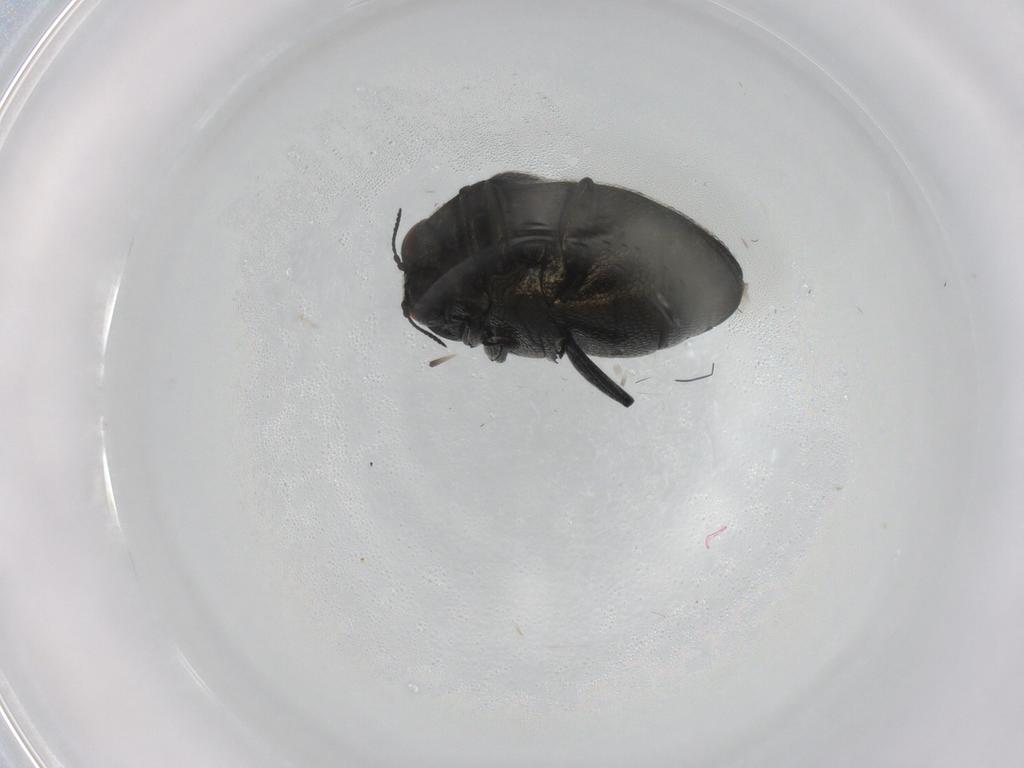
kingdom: Animalia
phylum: Arthropoda
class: Insecta
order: Coleoptera
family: Buprestidae
